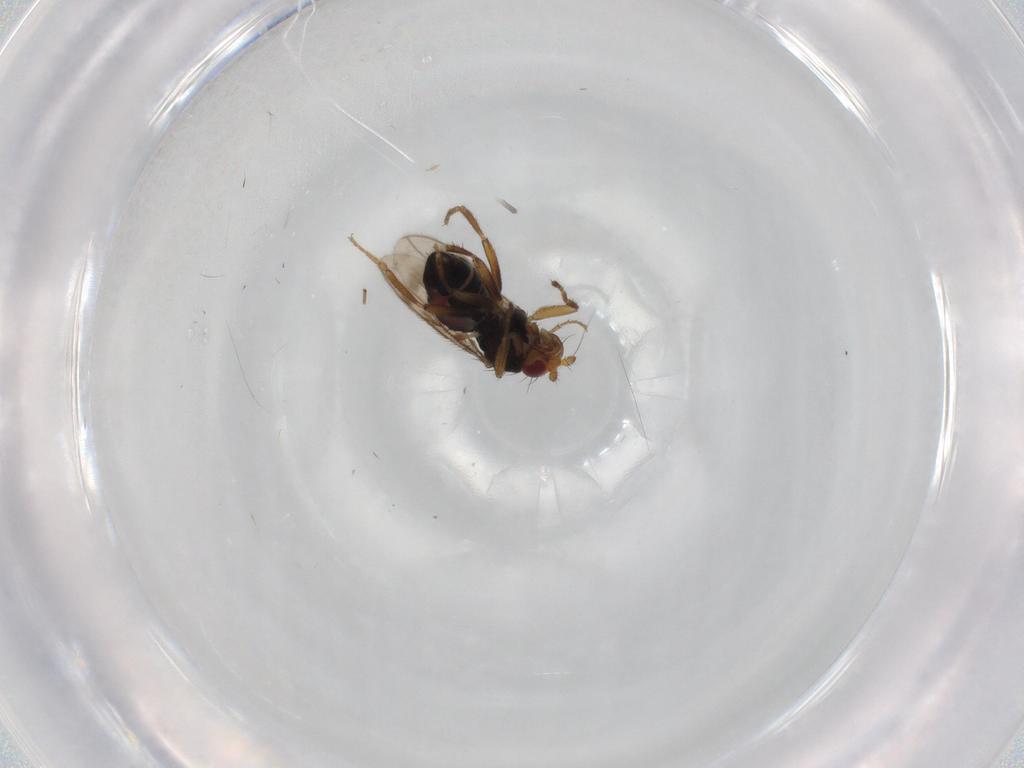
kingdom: Animalia
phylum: Arthropoda
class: Insecta
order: Diptera
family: Sphaeroceridae
